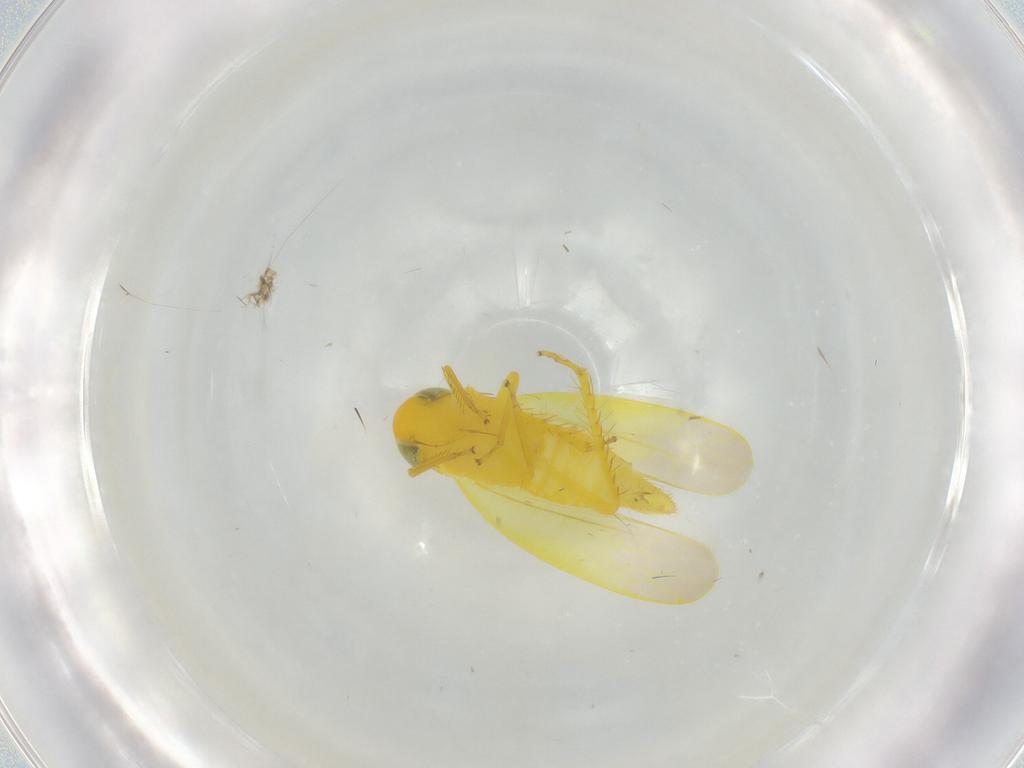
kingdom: Animalia
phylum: Arthropoda
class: Insecta
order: Hemiptera
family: Cicadellidae
